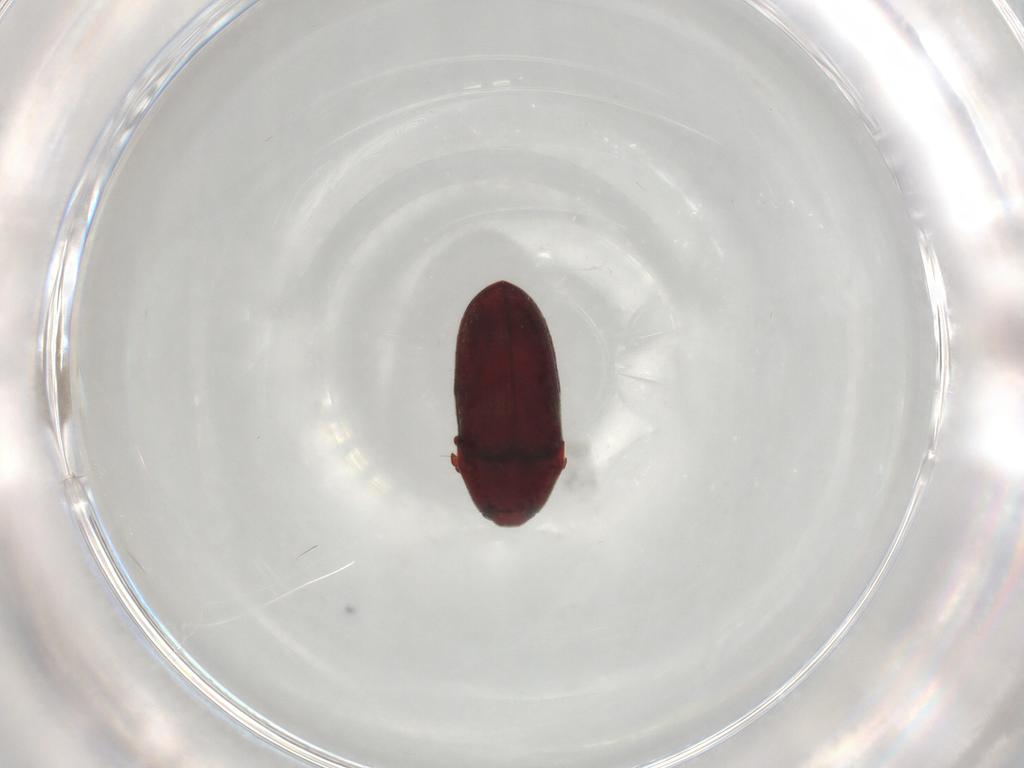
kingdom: Animalia
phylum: Arthropoda
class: Insecta
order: Coleoptera
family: Throscidae
